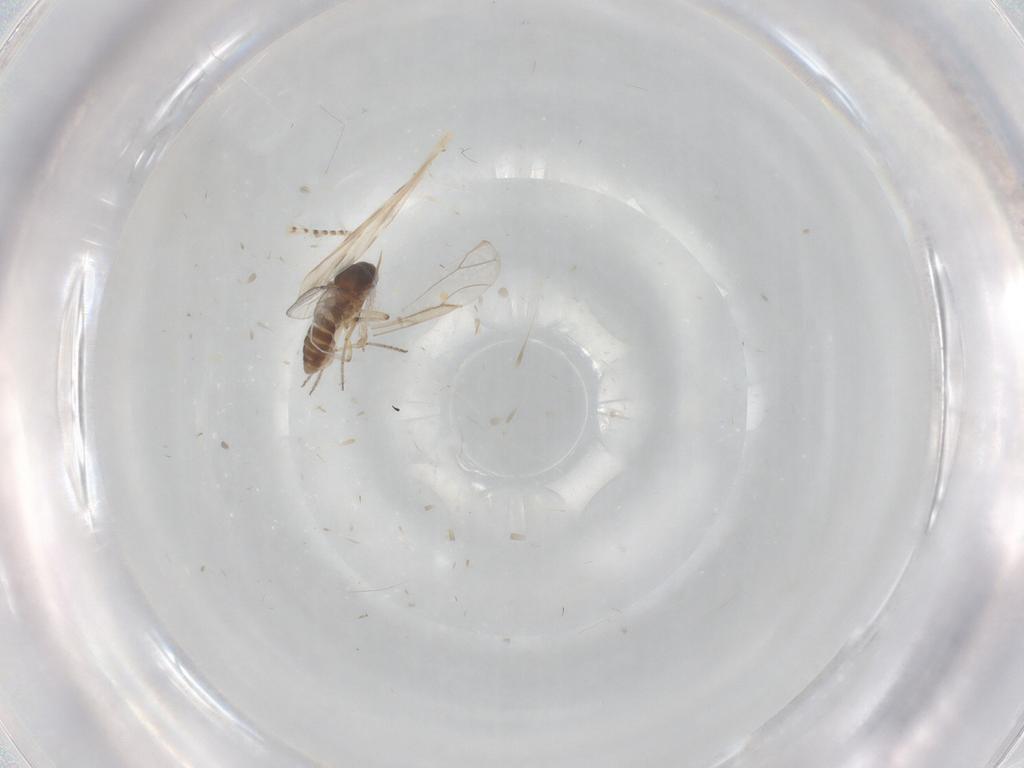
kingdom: Animalia
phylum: Arthropoda
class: Insecta
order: Diptera
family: Ceratopogonidae
